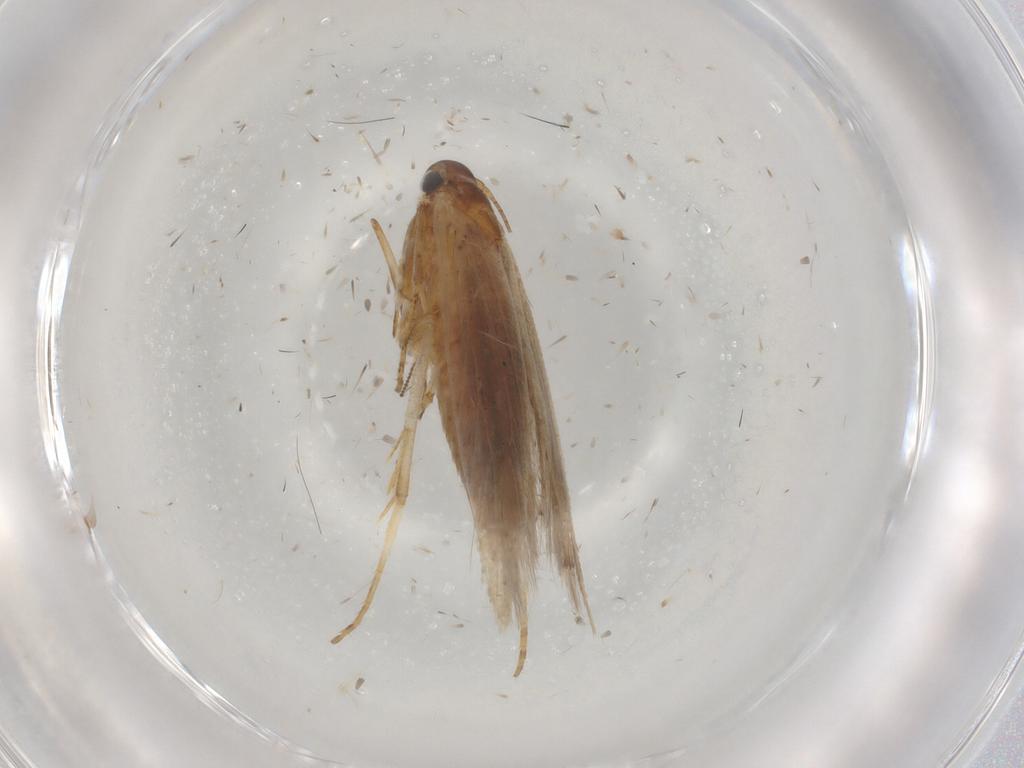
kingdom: Animalia
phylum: Arthropoda
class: Insecta
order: Lepidoptera
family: Gelechiidae
